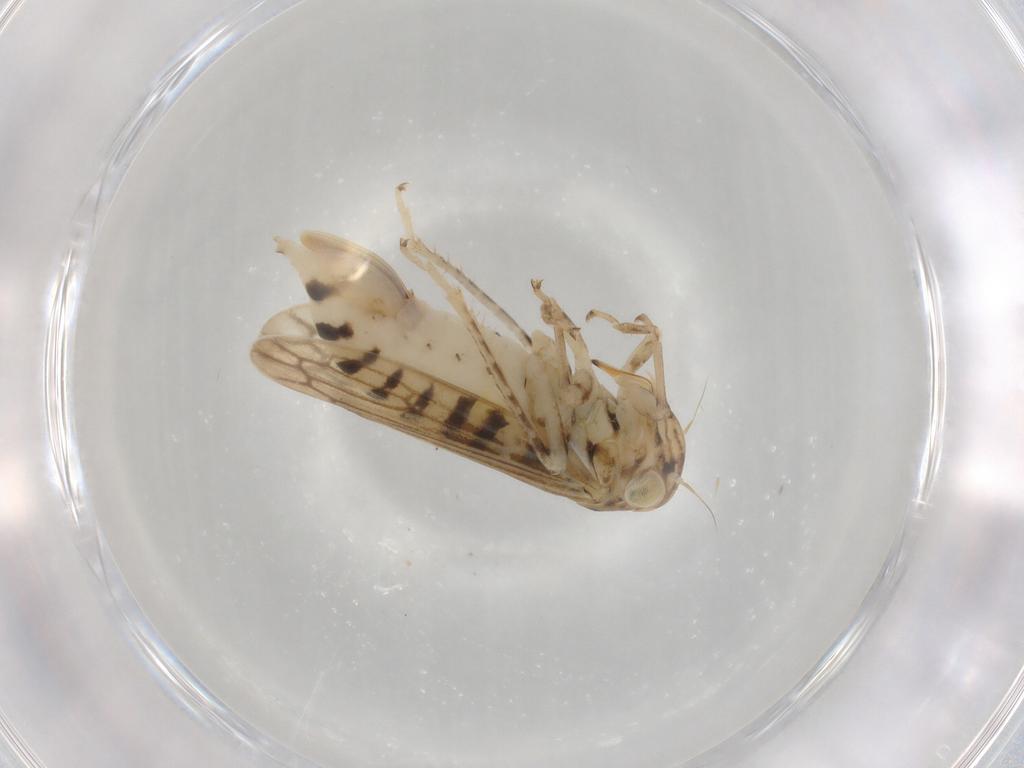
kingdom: Animalia
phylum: Arthropoda
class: Insecta
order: Hemiptera
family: Cicadellidae
